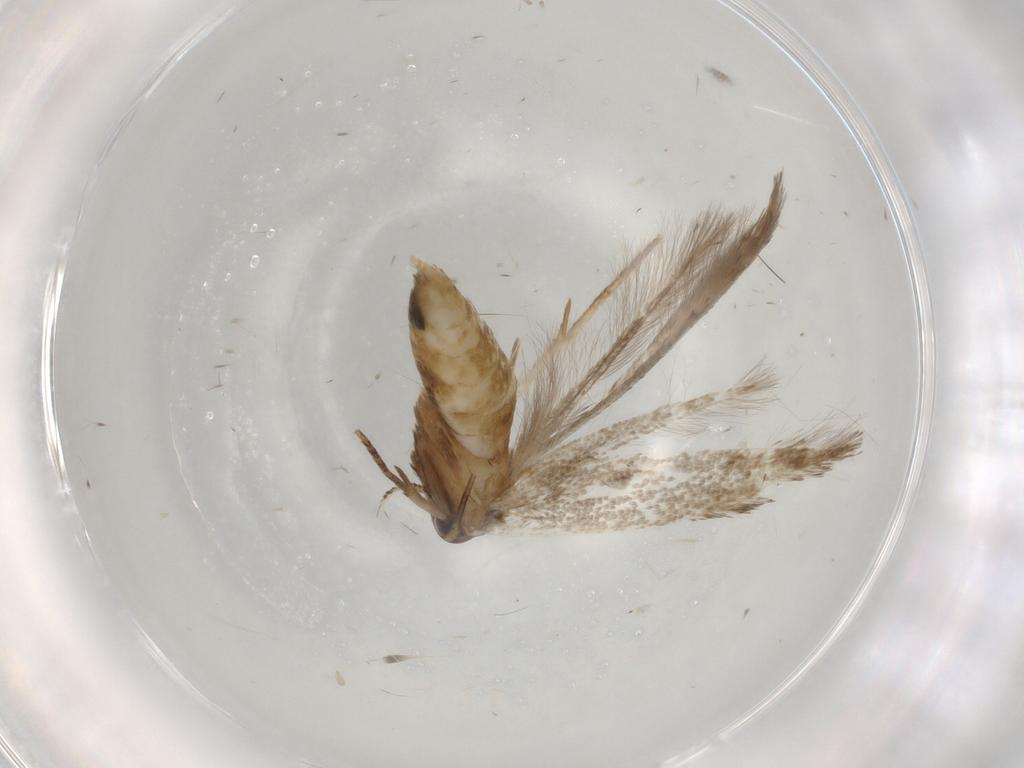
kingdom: Animalia
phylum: Arthropoda
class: Insecta
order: Lepidoptera
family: Cosmopterigidae
